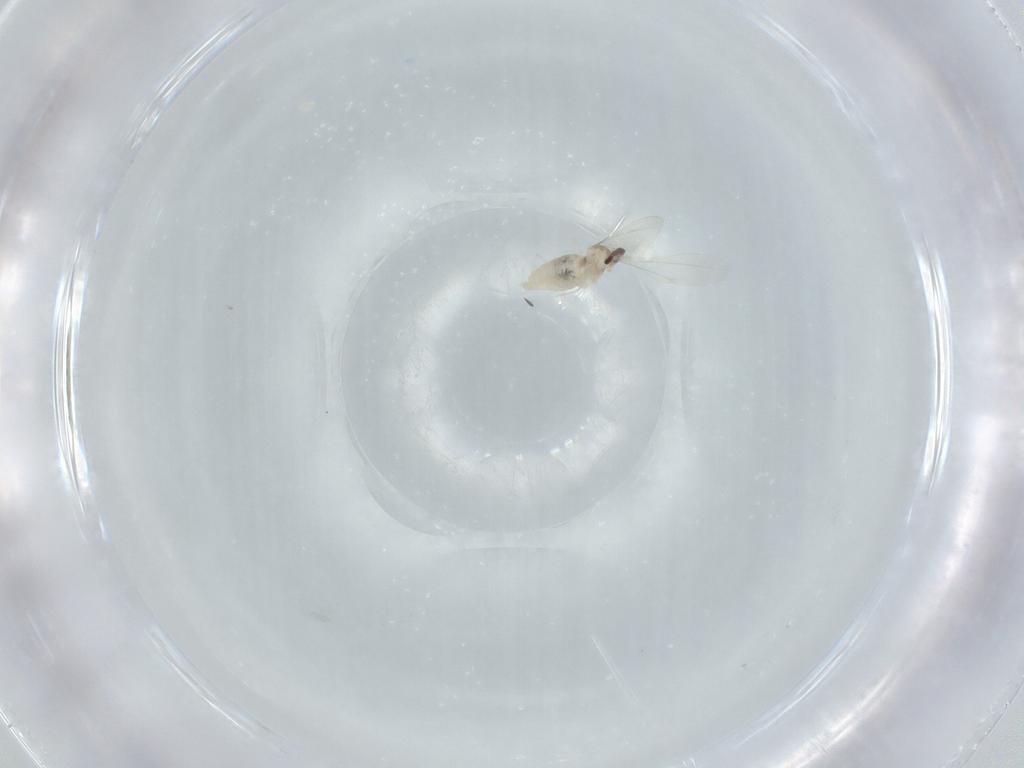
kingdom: Animalia
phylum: Arthropoda
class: Insecta
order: Diptera
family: Cecidomyiidae
